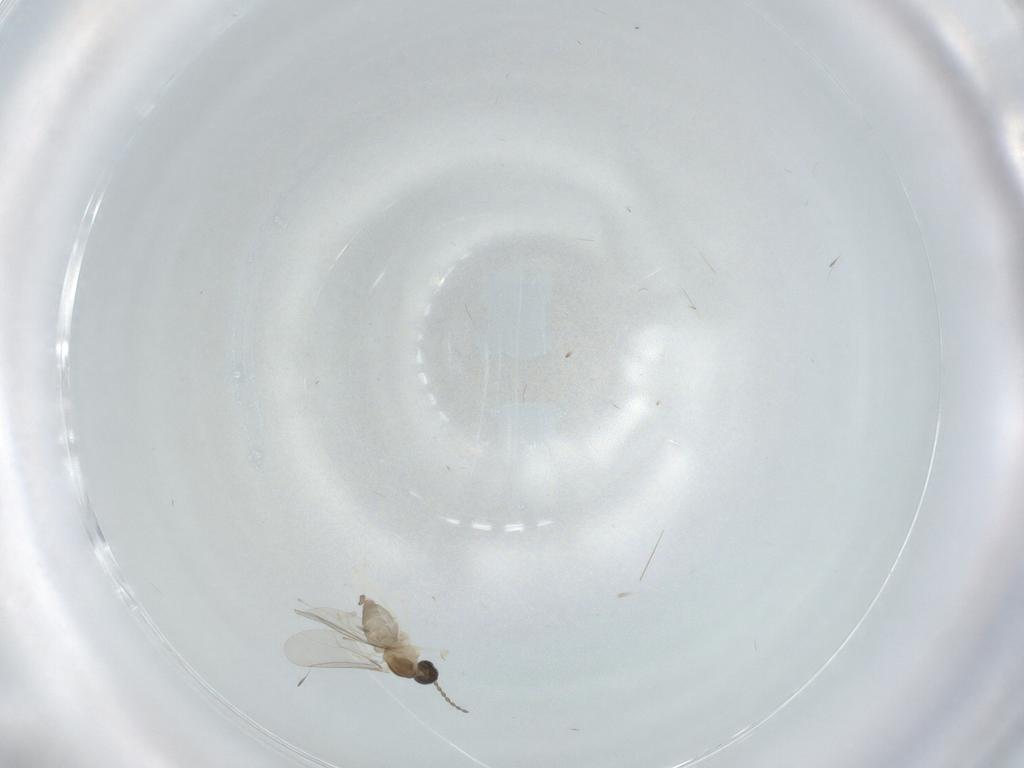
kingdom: Animalia
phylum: Arthropoda
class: Insecta
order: Diptera
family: Cecidomyiidae
